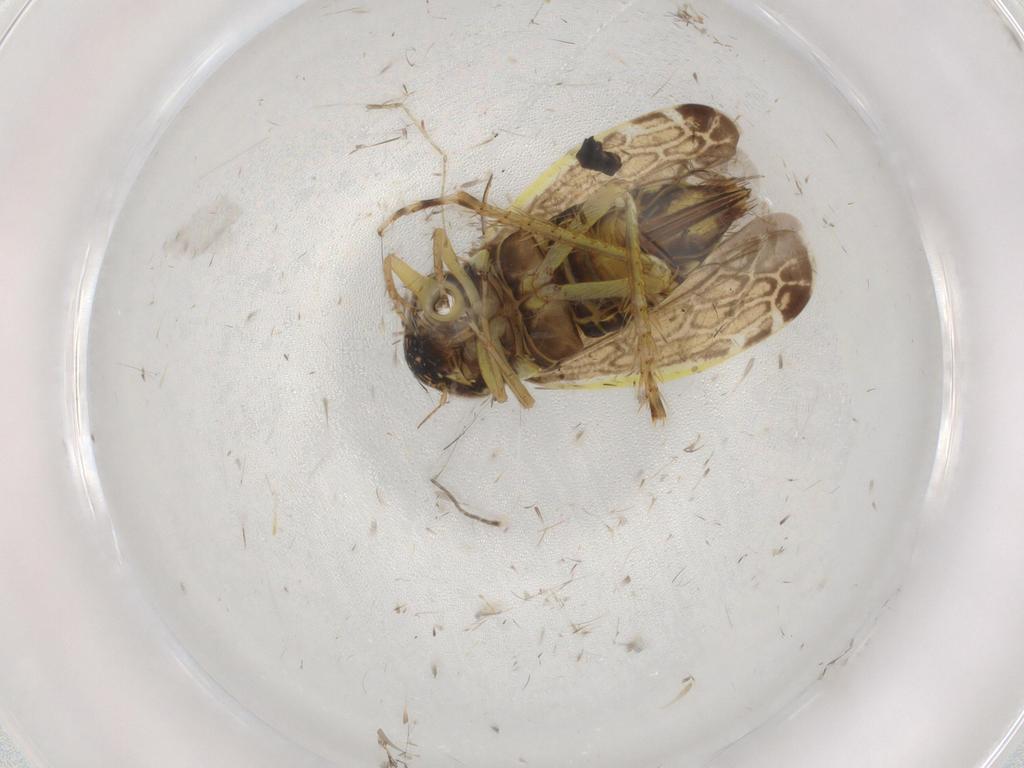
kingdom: Animalia
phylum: Arthropoda
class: Insecta
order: Hemiptera
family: Cicadellidae
